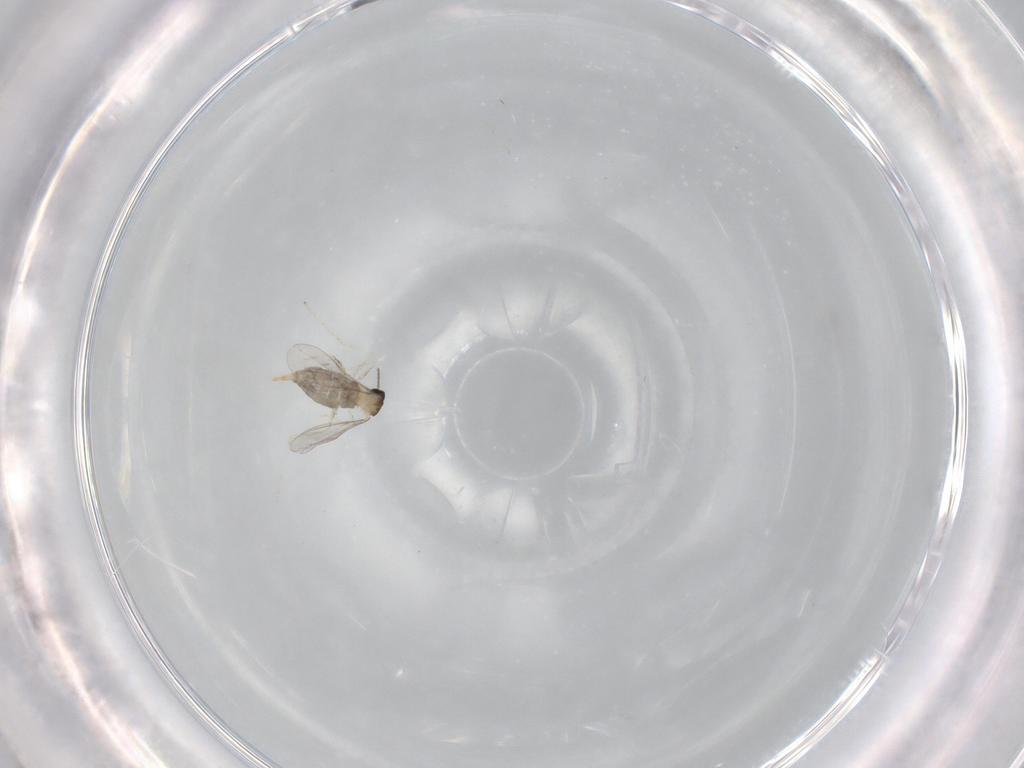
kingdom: Animalia
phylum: Arthropoda
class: Insecta
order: Diptera
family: Cecidomyiidae
